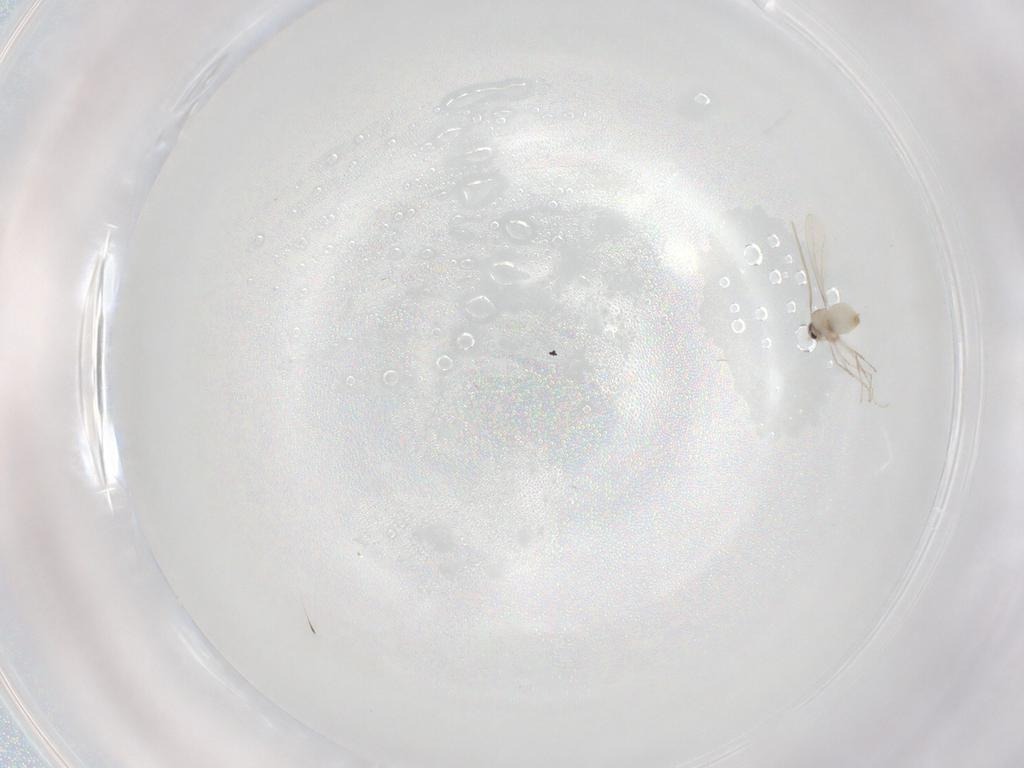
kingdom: Animalia
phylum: Arthropoda
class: Insecta
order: Diptera
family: Cecidomyiidae
